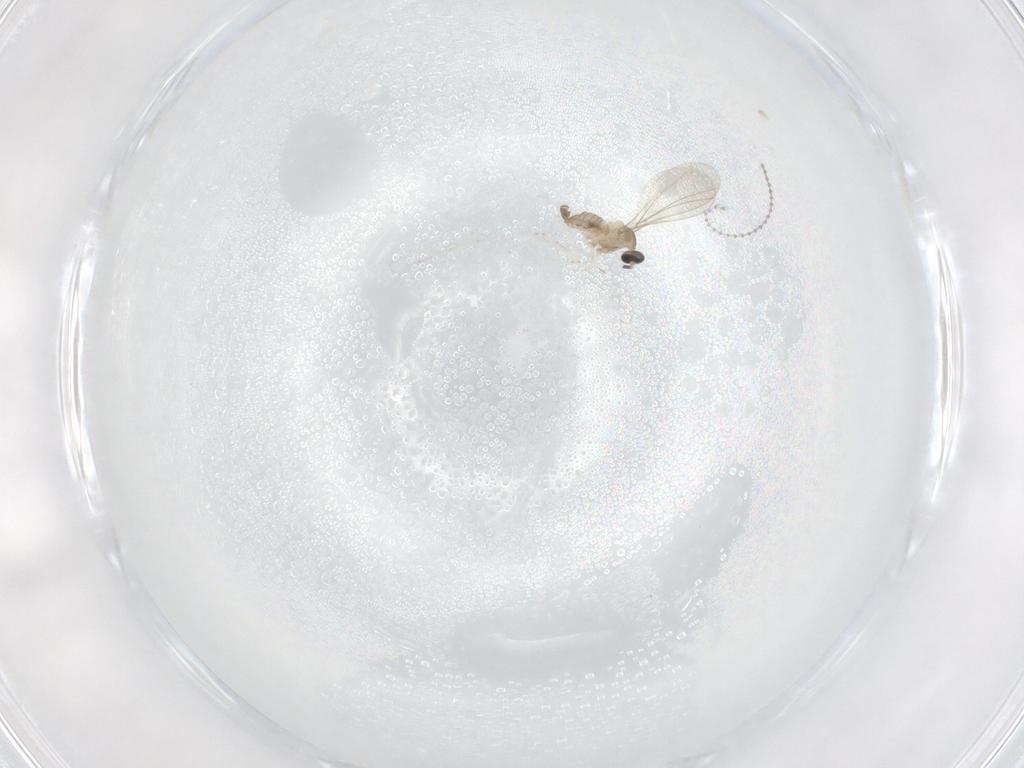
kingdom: Animalia
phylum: Arthropoda
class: Insecta
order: Diptera
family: Cecidomyiidae
